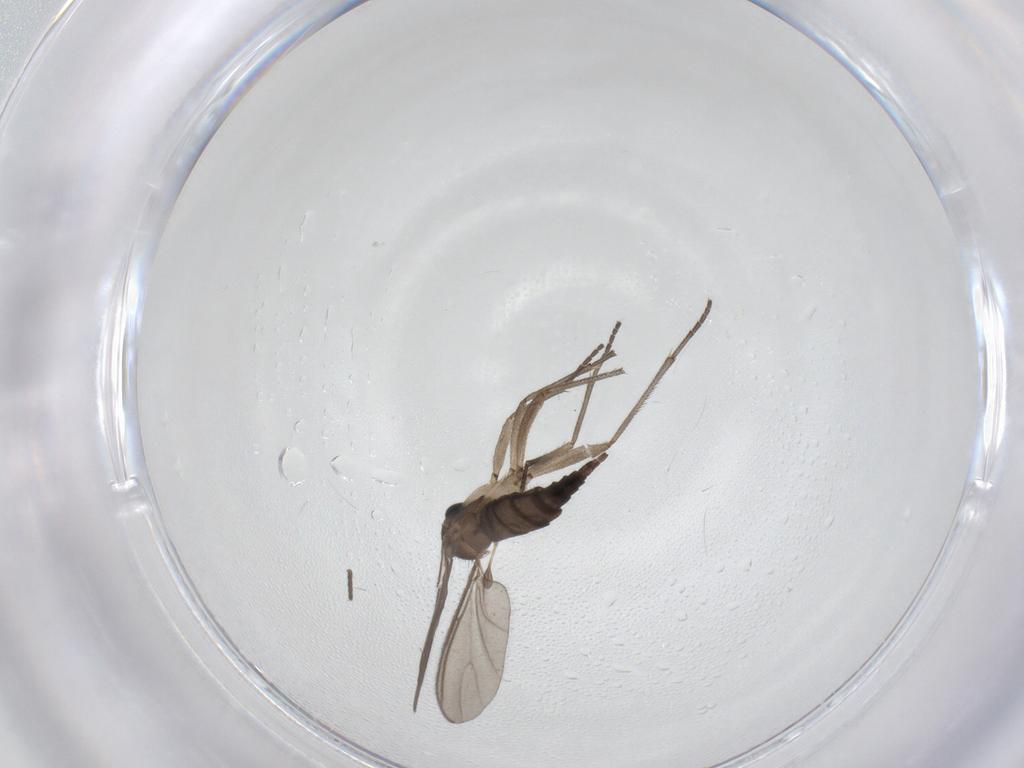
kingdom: Animalia
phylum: Arthropoda
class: Insecta
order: Diptera
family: Sciaridae
